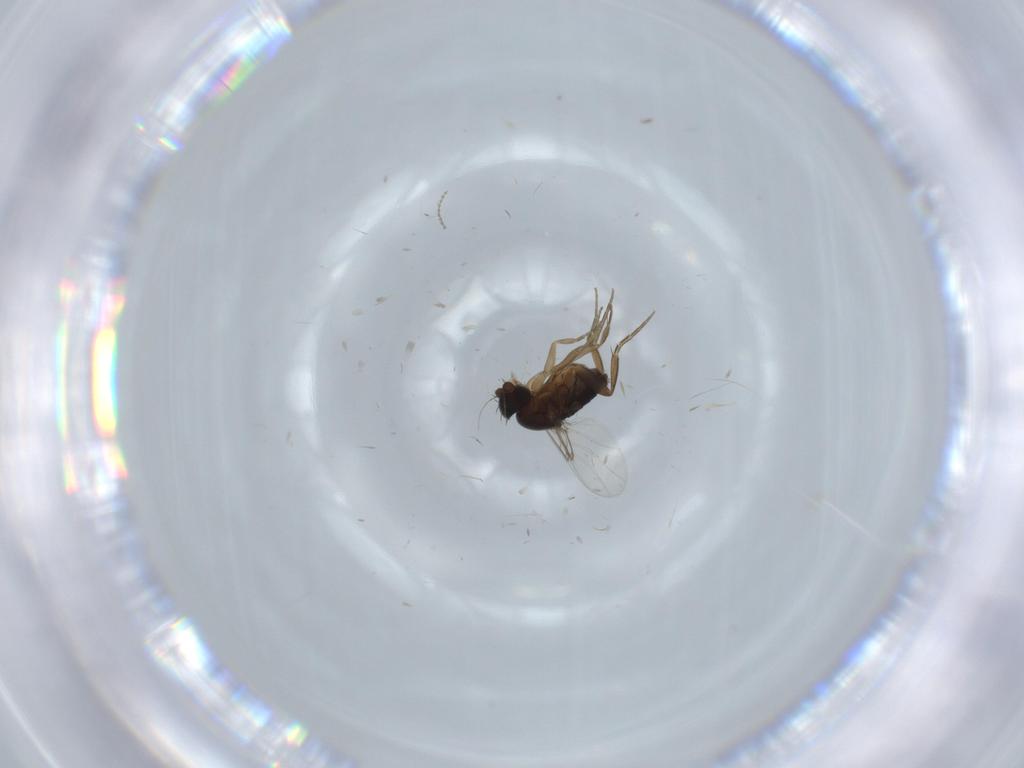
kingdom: Animalia
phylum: Arthropoda
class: Insecta
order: Diptera
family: Phoridae
